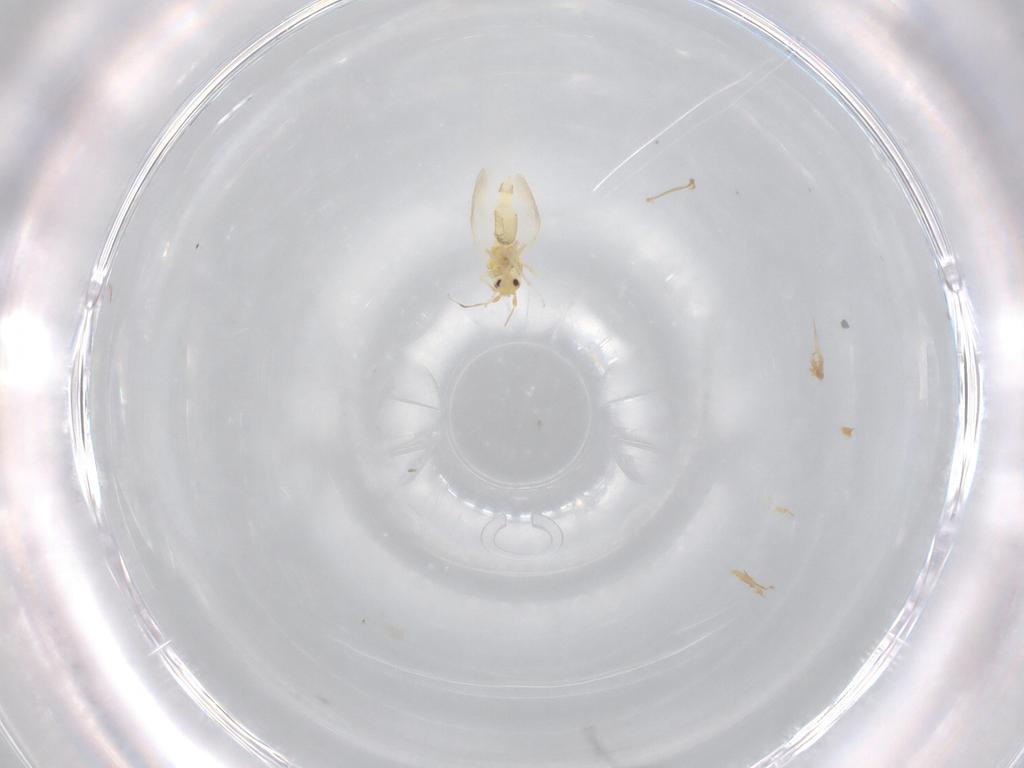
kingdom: Animalia
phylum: Arthropoda
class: Insecta
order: Hemiptera
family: Aleyrodidae
